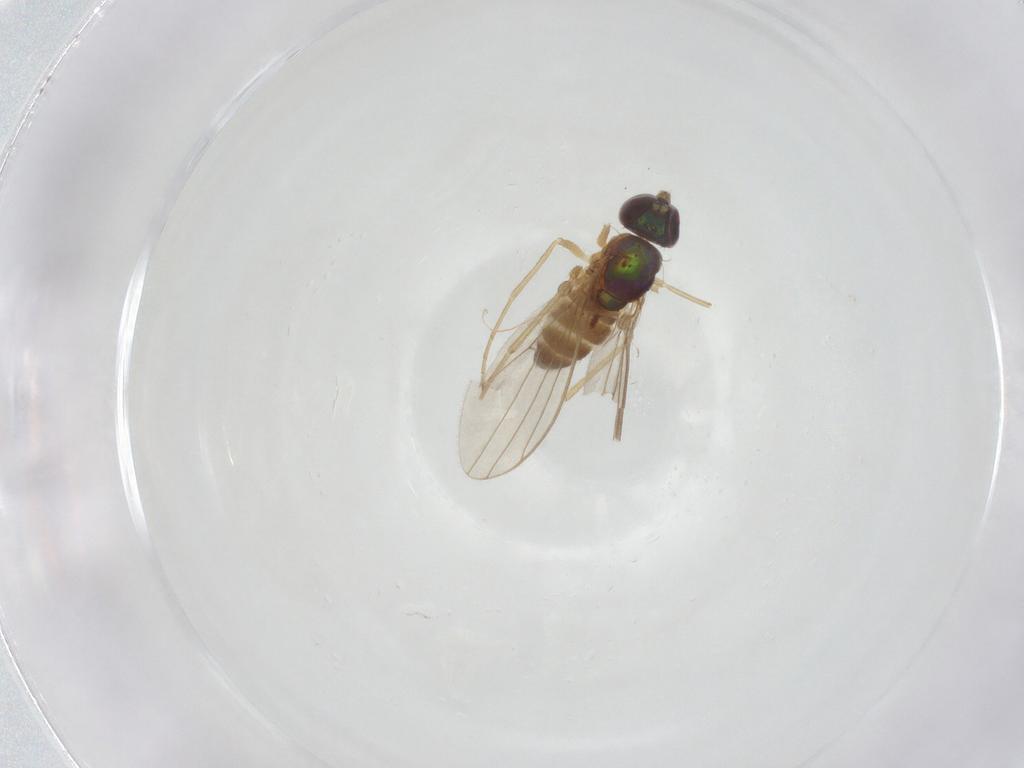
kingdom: Animalia
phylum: Arthropoda
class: Insecta
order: Diptera
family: Dolichopodidae
